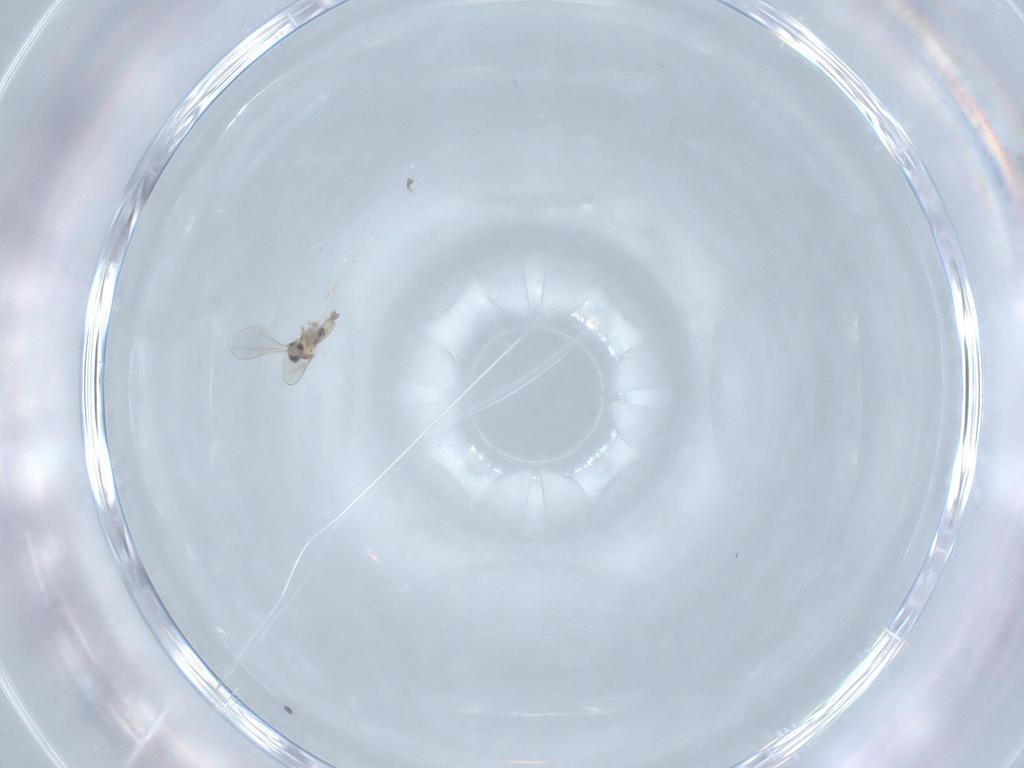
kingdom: Animalia
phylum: Arthropoda
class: Insecta
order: Diptera
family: Cecidomyiidae
